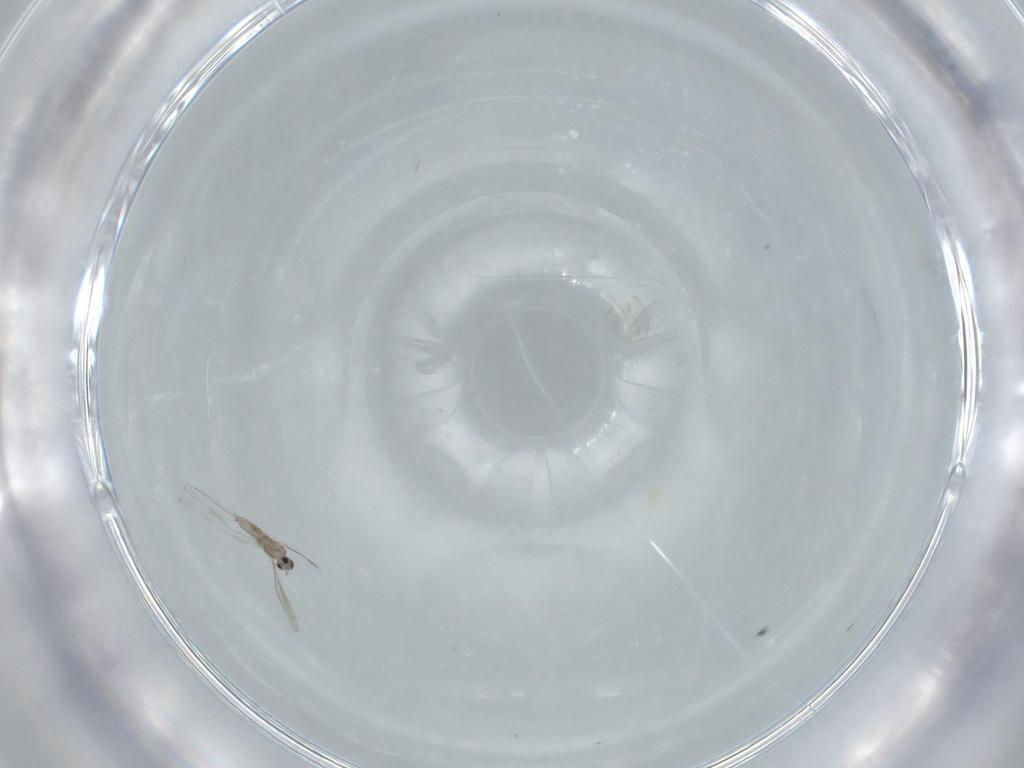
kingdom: Animalia
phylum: Arthropoda
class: Insecta
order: Diptera
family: Cecidomyiidae
